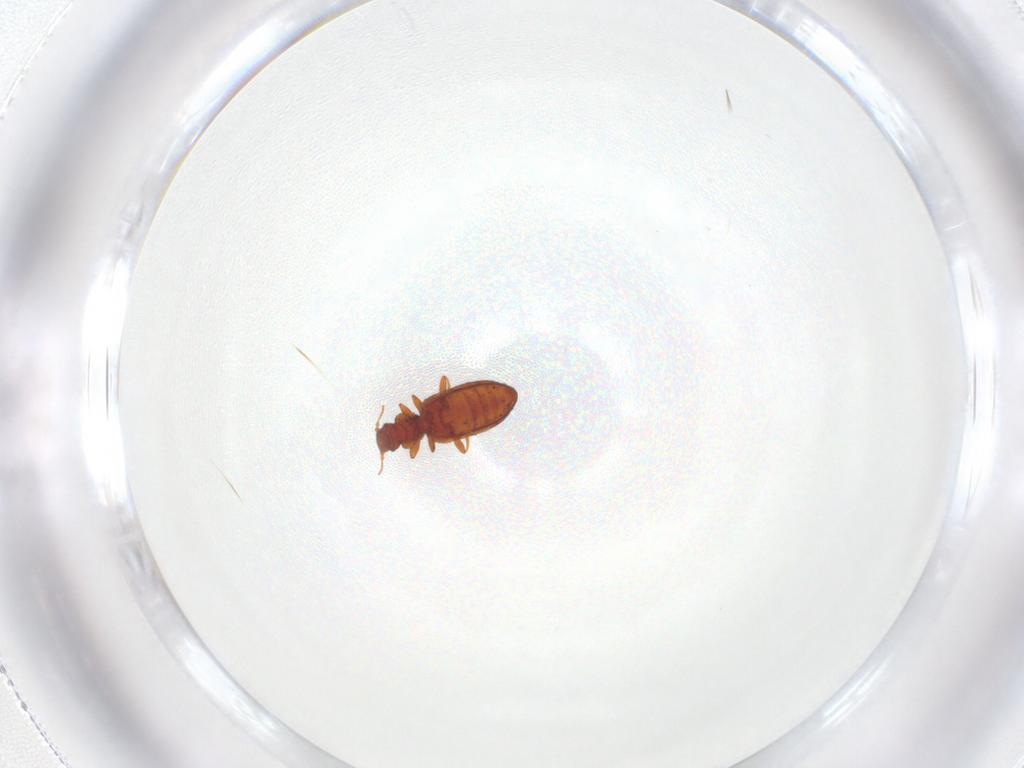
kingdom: Animalia
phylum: Arthropoda
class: Insecta
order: Coleoptera
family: Latridiidae
